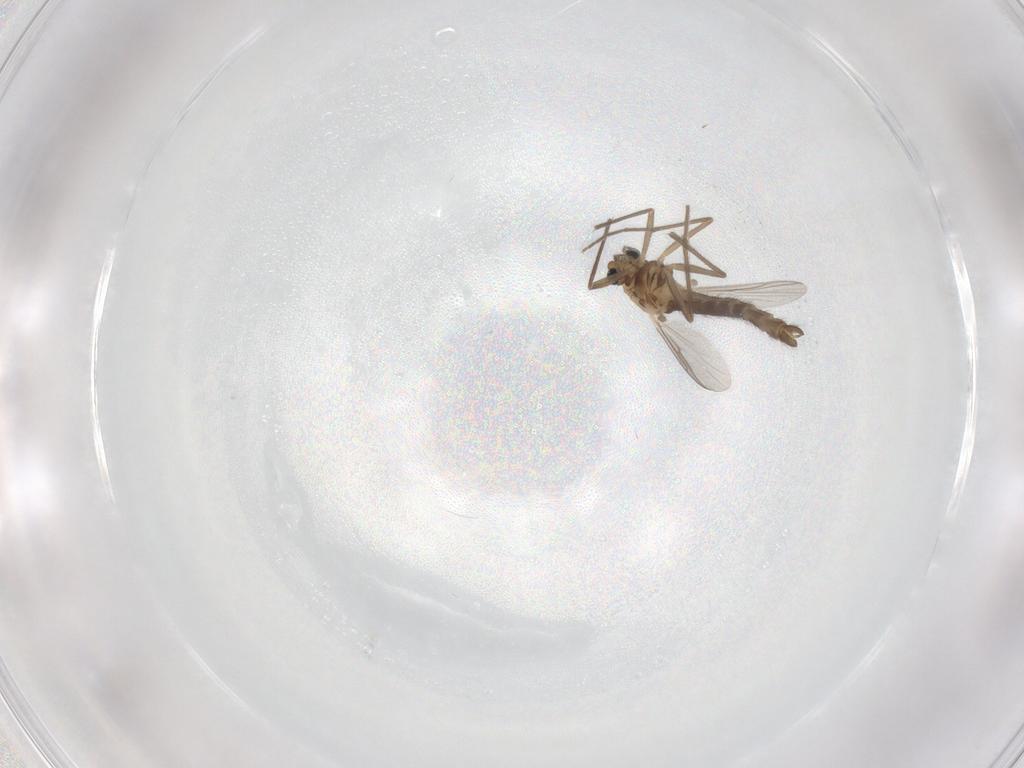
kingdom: Animalia
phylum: Arthropoda
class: Insecta
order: Diptera
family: Chironomidae
